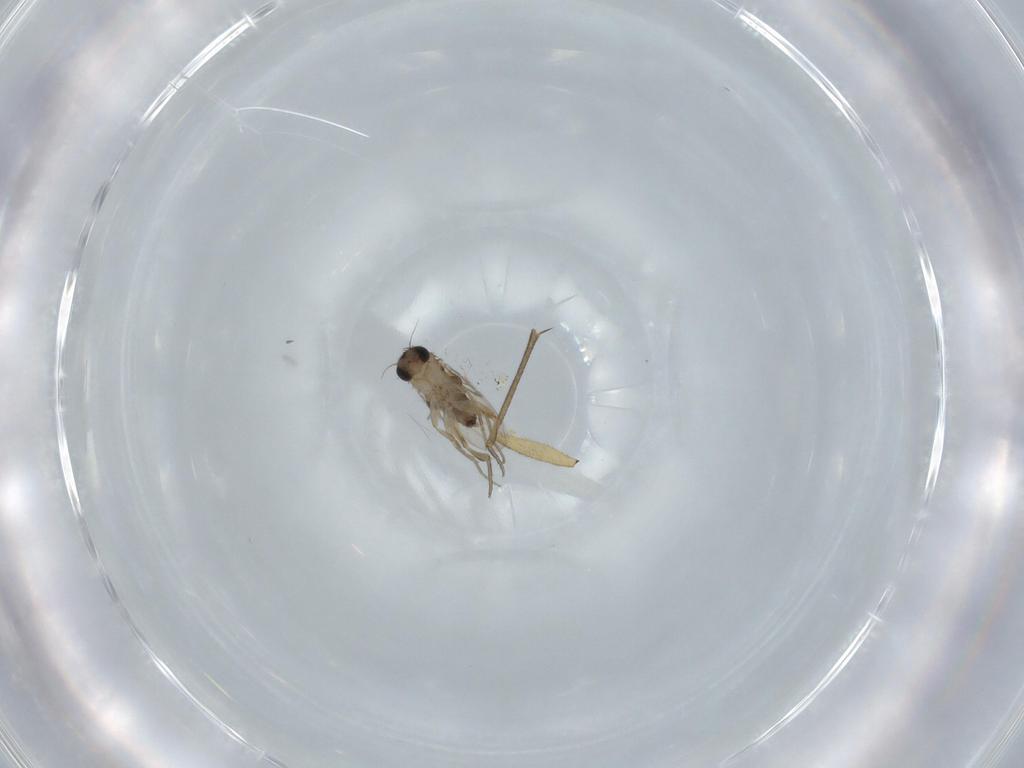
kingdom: Animalia
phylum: Arthropoda
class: Insecta
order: Diptera
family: Phoridae
